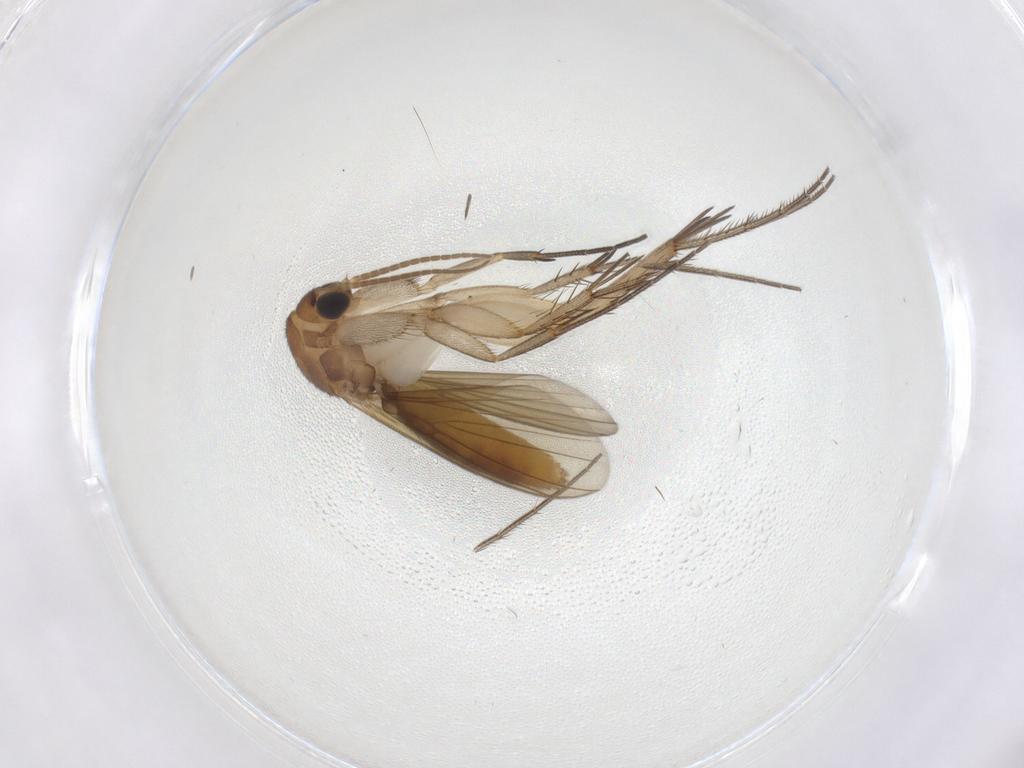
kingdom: Animalia
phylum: Arthropoda
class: Insecta
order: Diptera
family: Mycetophilidae
